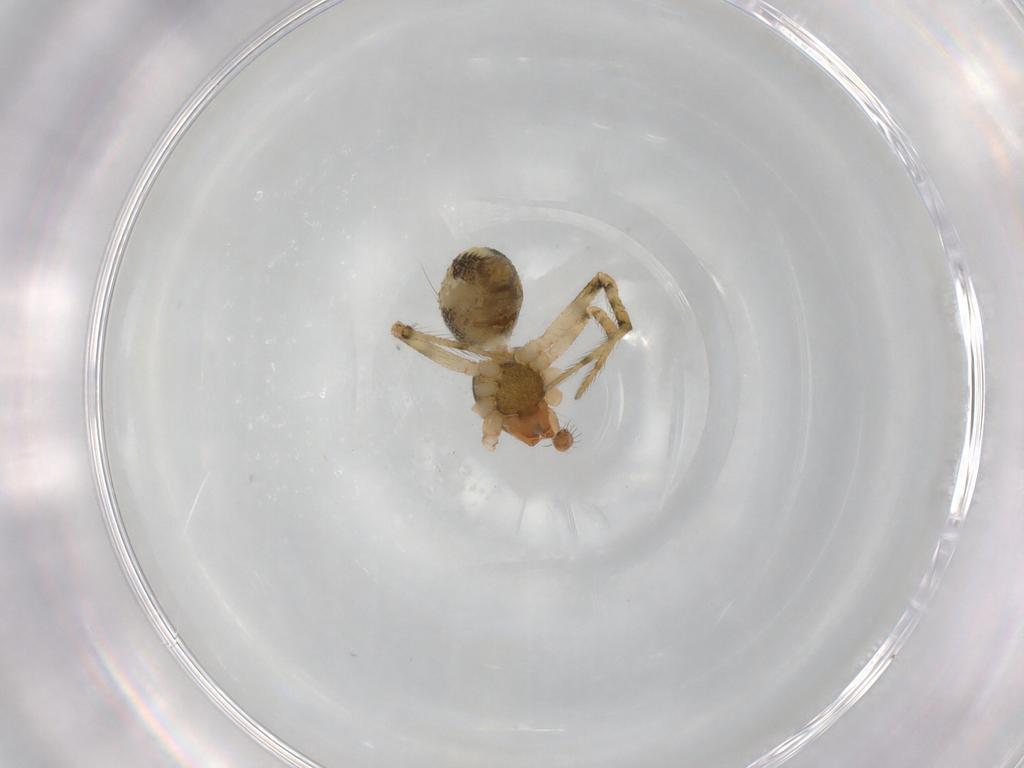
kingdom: Animalia
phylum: Arthropoda
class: Arachnida
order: Araneae
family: Theridiidae
